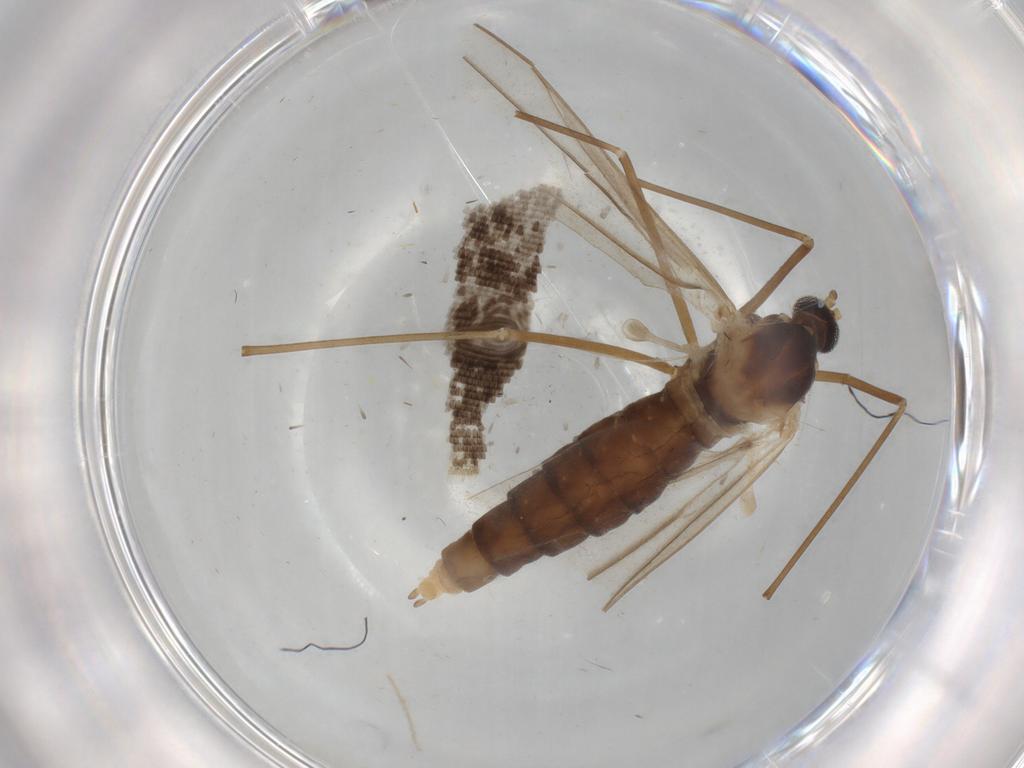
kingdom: Animalia
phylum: Arthropoda
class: Insecta
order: Diptera
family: Cecidomyiidae
